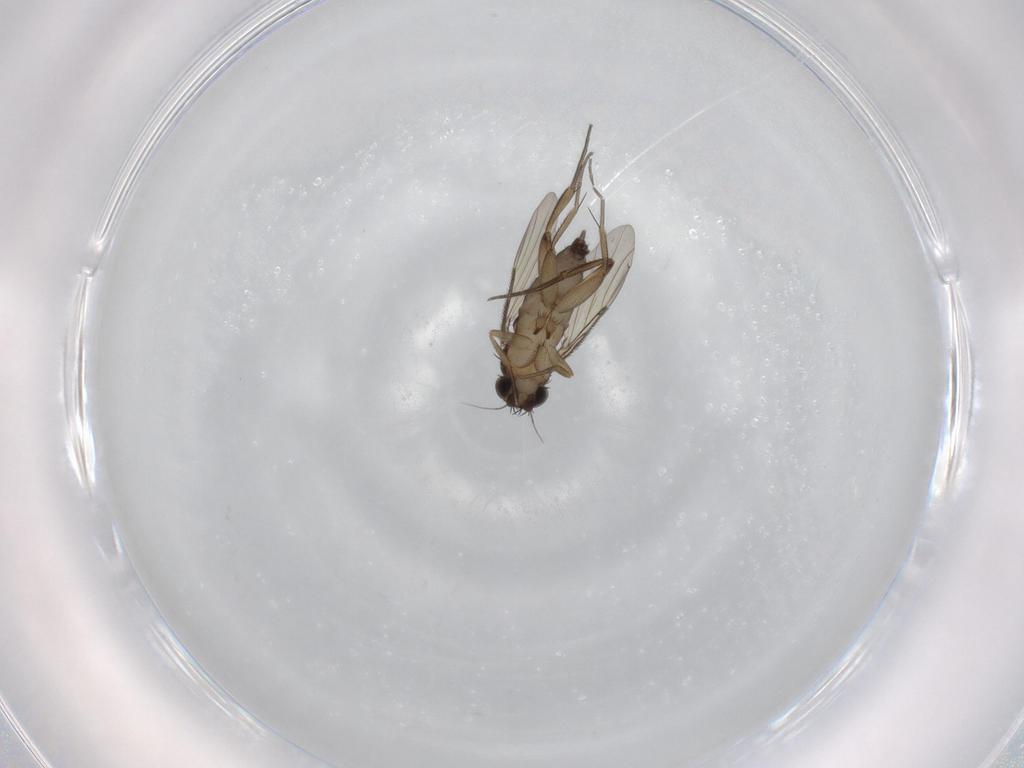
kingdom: Animalia
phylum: Arthropoda
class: Insecta
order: Diptera
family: Phoridae
